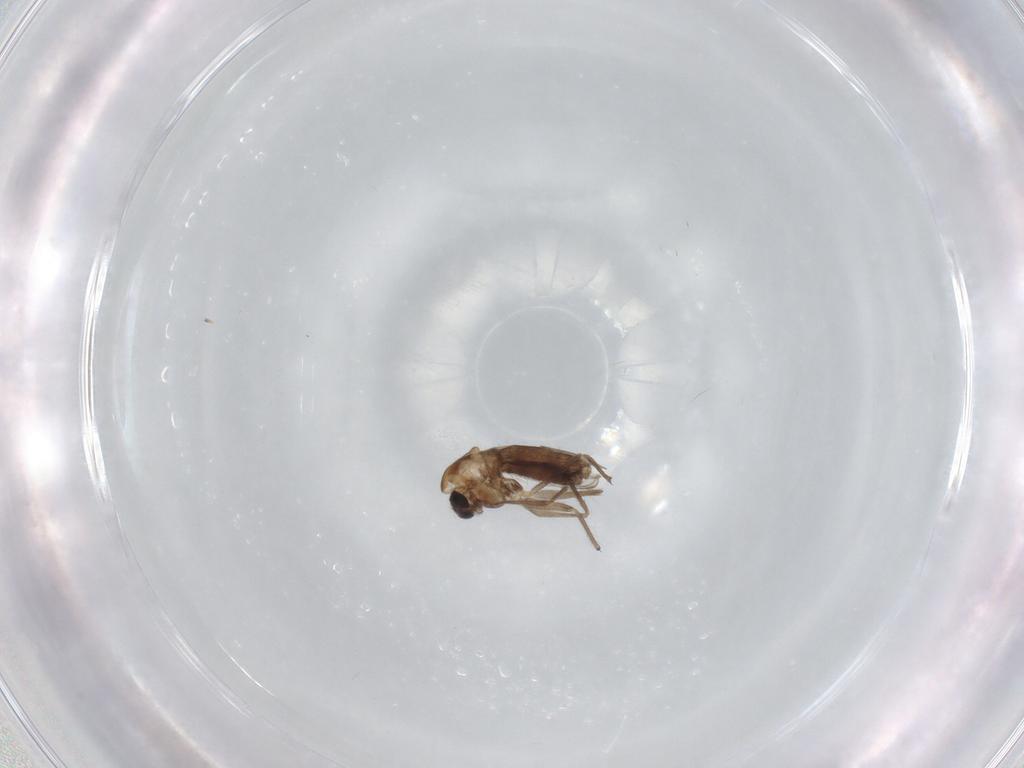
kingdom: Animalia
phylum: Arthropoda
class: Insecta
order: Diptera
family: Chironomidae
